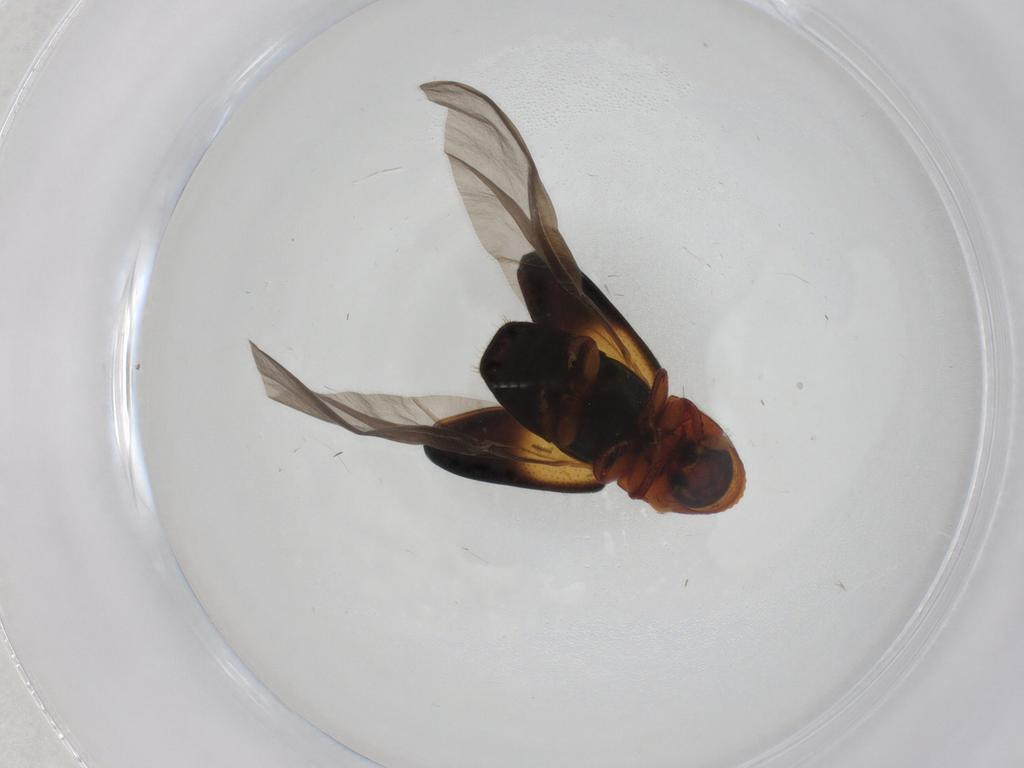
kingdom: Animalia
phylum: Arthropoda
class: Insecta
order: Coleoptera
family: Curculionidae
